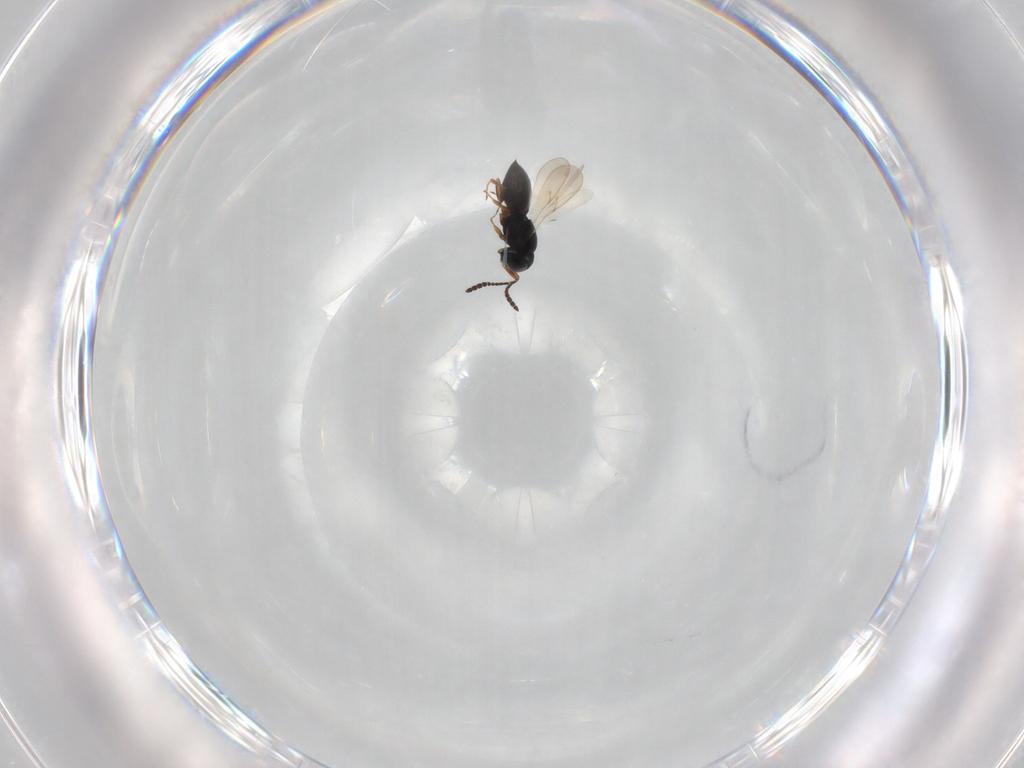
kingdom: Animalia
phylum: Arthropoda
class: Insecta
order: Hymenoptera
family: Scelionidae
